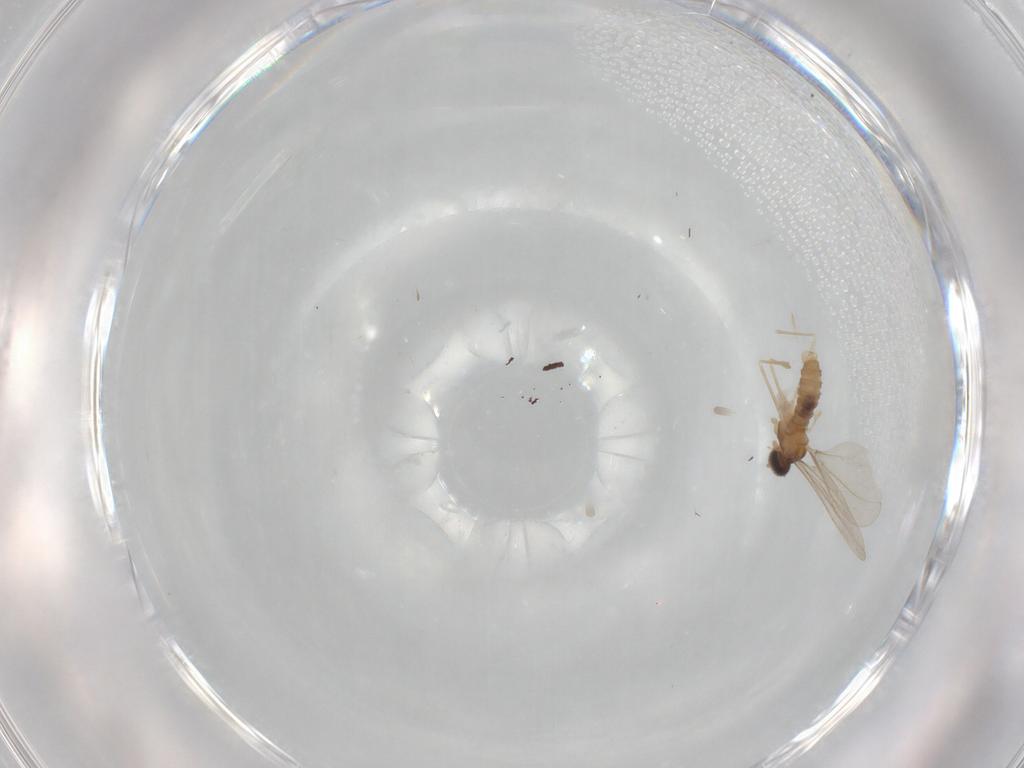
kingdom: Animalia
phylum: Arthropoda
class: Insecta
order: Diptera
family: Cecidomyiidae
